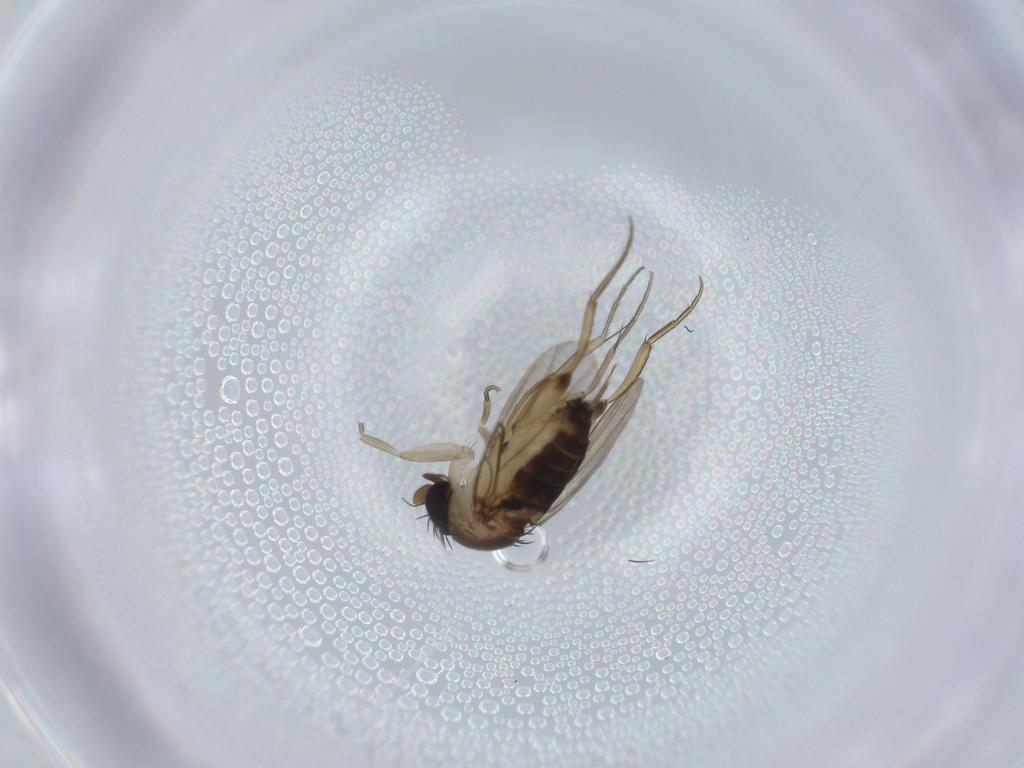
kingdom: Animalia
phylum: Arthropoda
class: Insecta
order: Diptera
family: Phoridae
